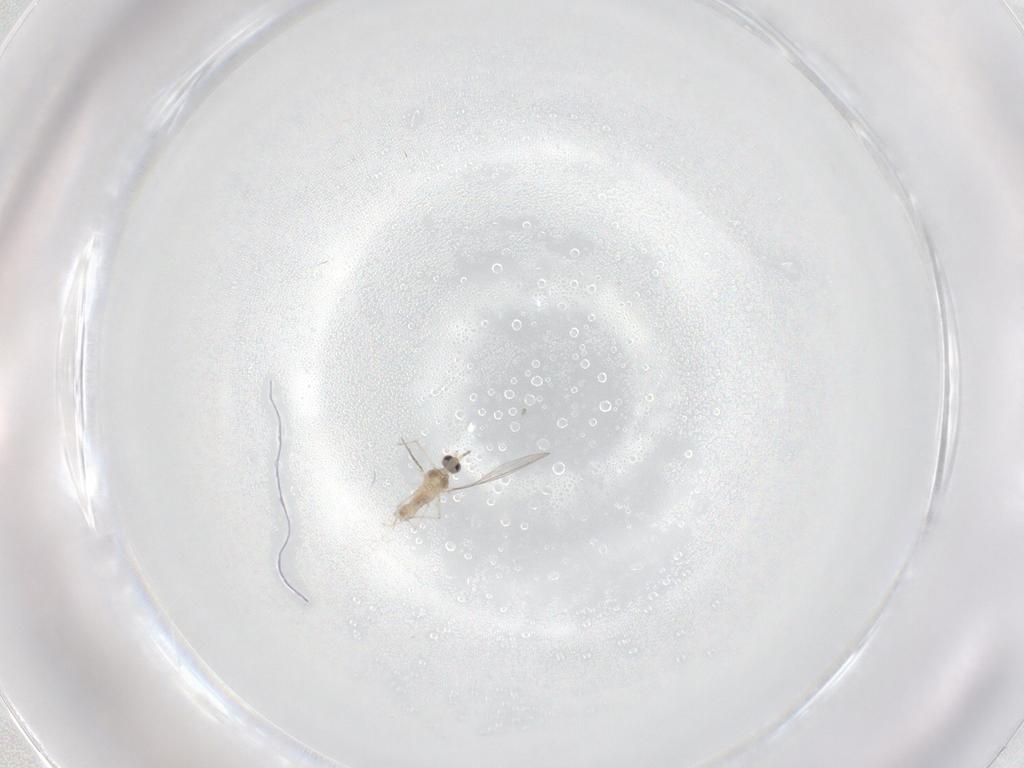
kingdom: Animalia
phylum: Arthropoda
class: Insecta
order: Diptera
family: Cecidomyiidae
